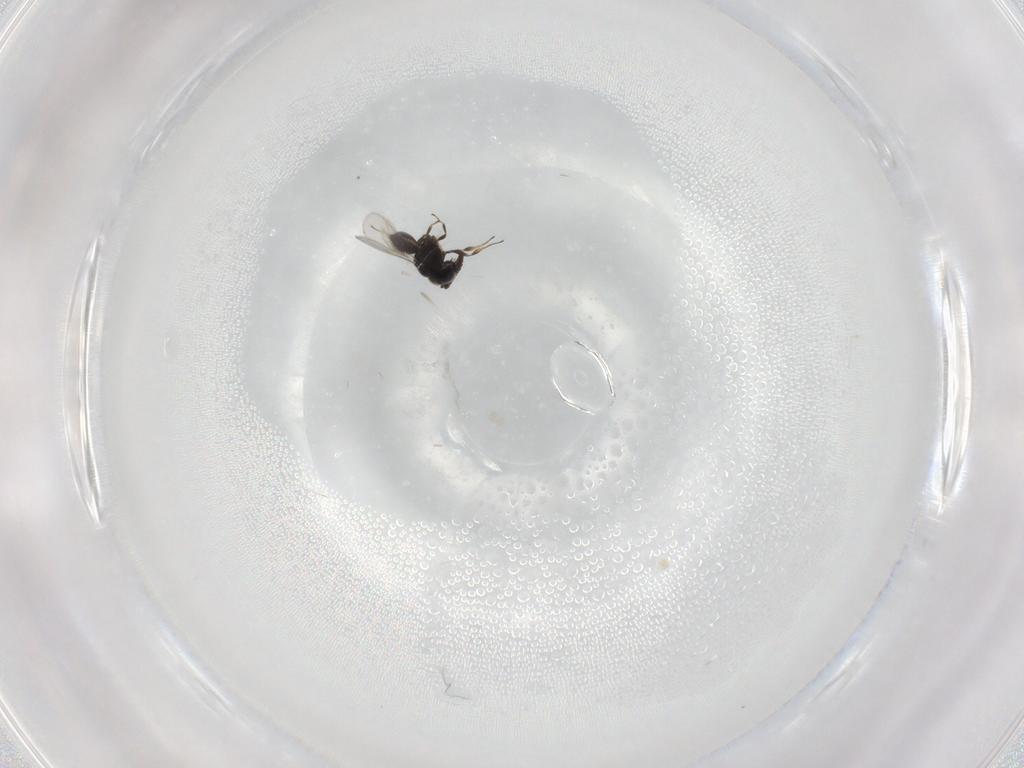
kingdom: Animalia
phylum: Arthropoda
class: Insecta
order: Hymenoptera
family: Scelionidae
